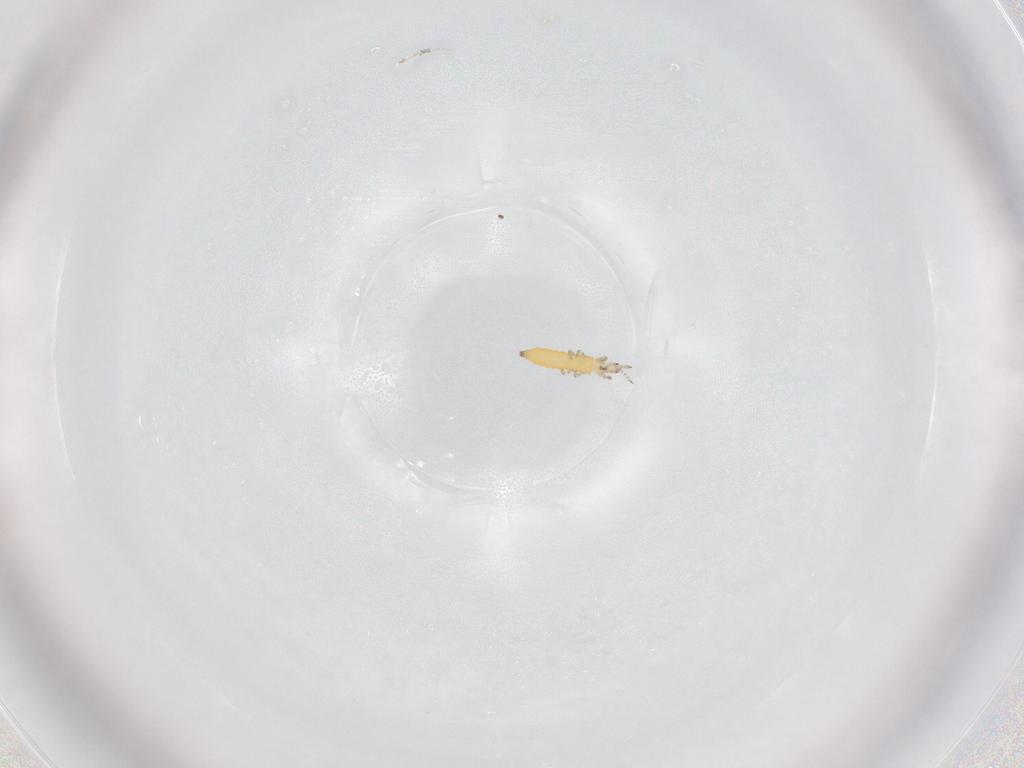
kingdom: Animalia
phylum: Arthropoda
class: Insecta
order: Thysanoptera
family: Thripidae
